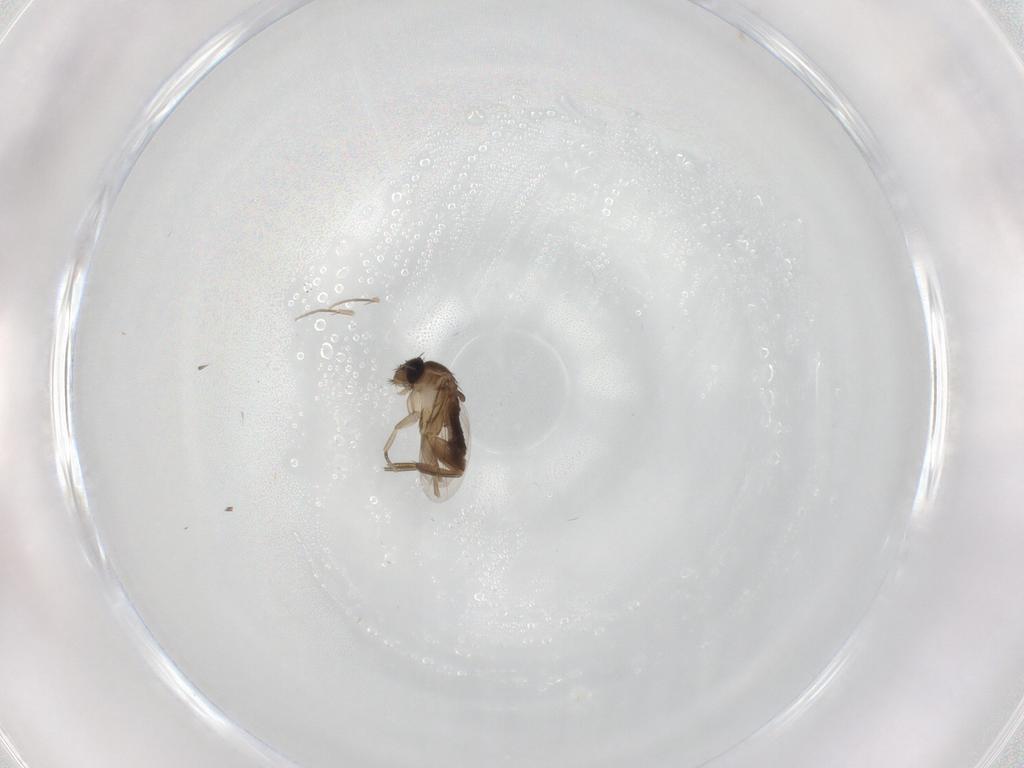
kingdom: Animalia
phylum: Arthropoda
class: Insecta
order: Diptera
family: Phoridae
